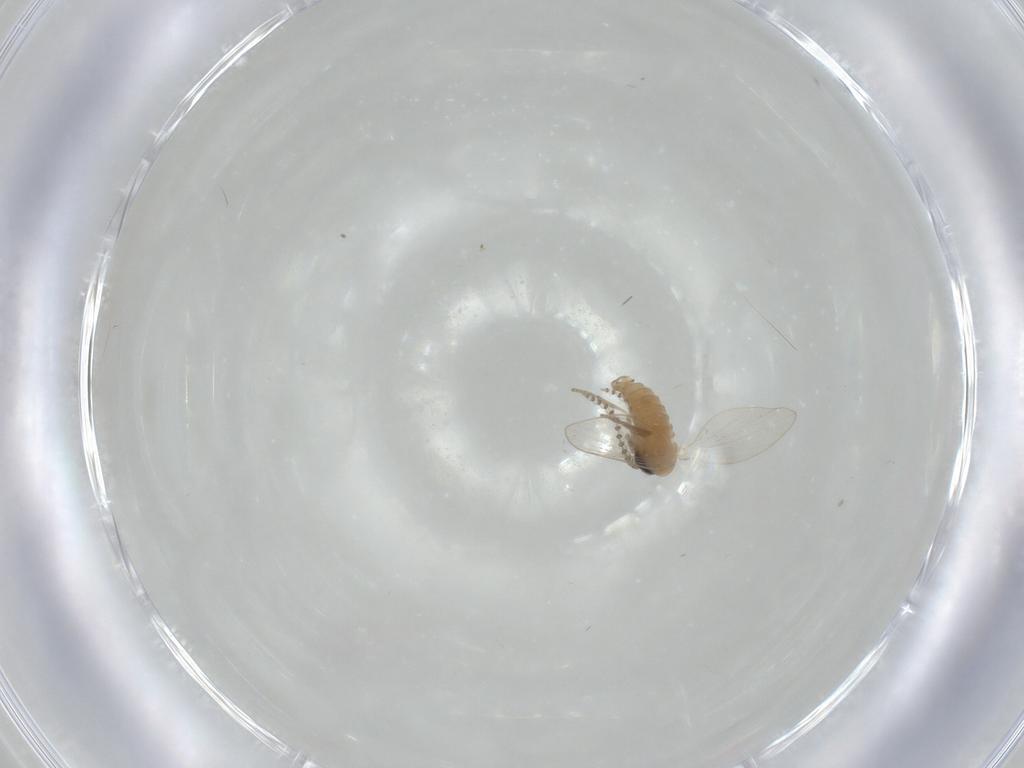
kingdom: Animalia
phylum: Arthropoda
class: Insecta
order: Diptera
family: Psychodidae
